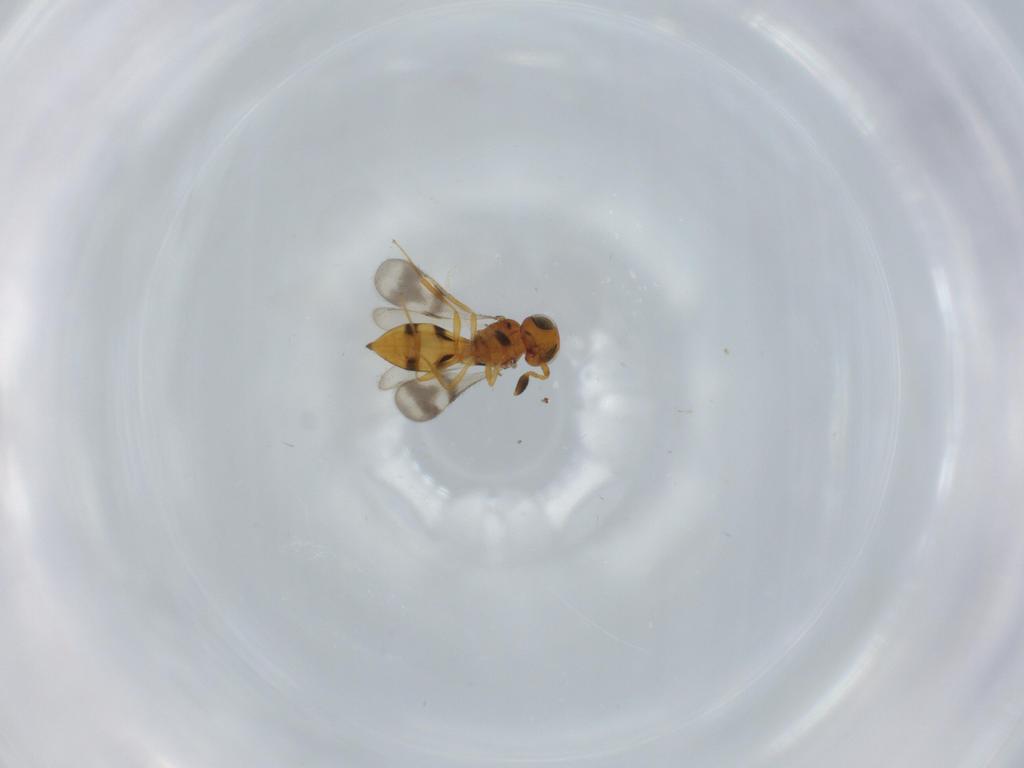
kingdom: Animalia
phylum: Arthropoda
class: Insecta
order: Hymenoptera
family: Scelionidae
